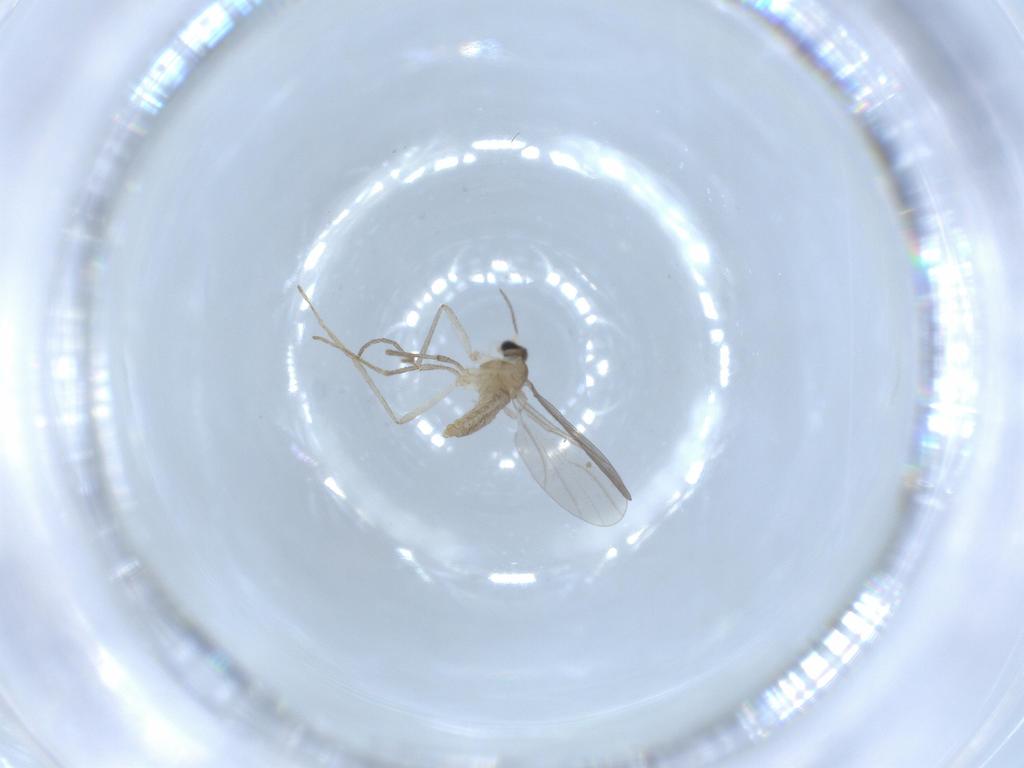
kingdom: Animalia
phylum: Arthropoda
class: Insecta
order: Diptera
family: Cecidomyiidae
